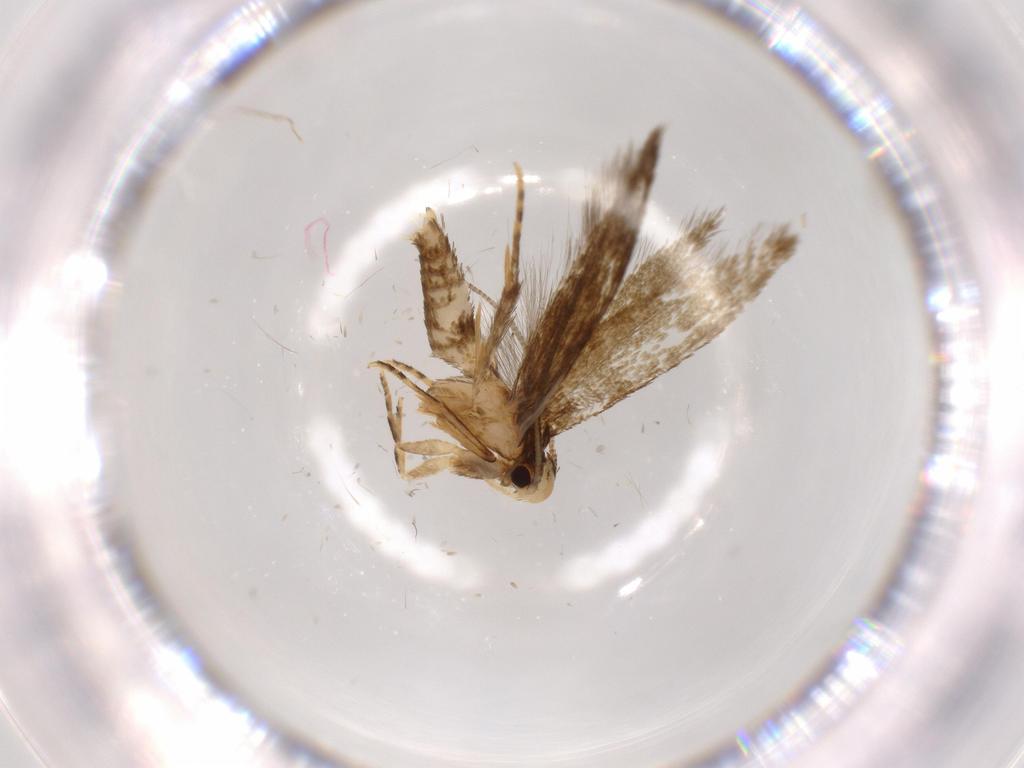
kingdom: Animalia
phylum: Arthropoda
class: Insecta
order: Lepidoptera
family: Tineidae
